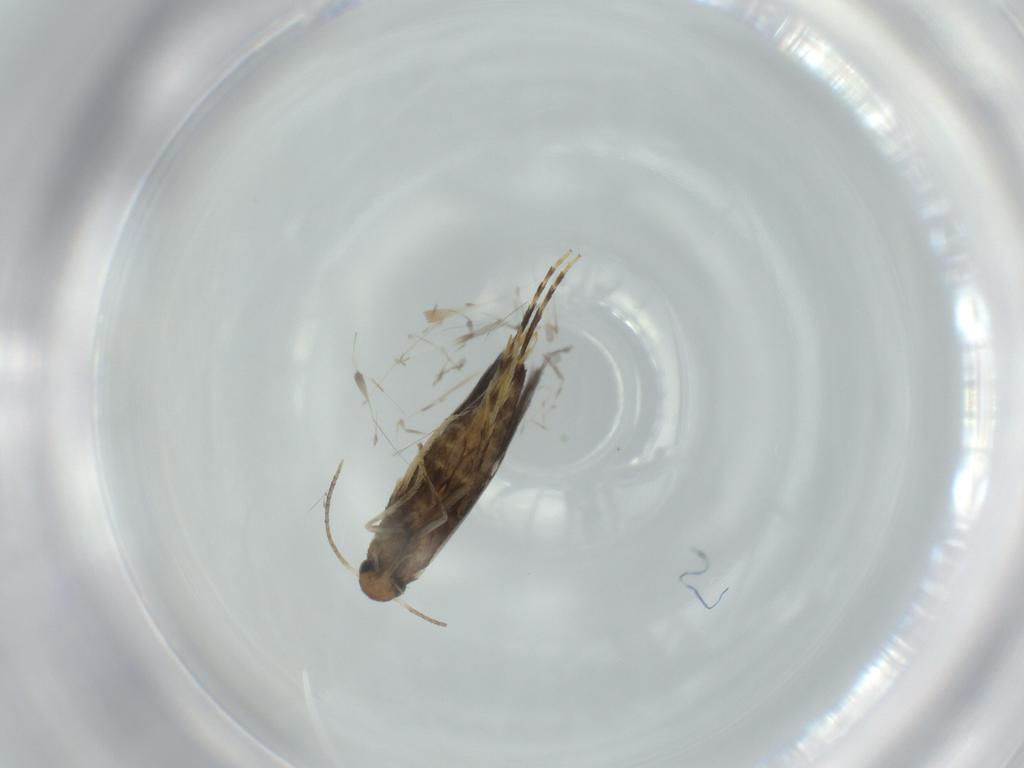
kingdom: Animalia
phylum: Arthropoda
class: Insecta
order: Lepidoptera
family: Heliozelidae
